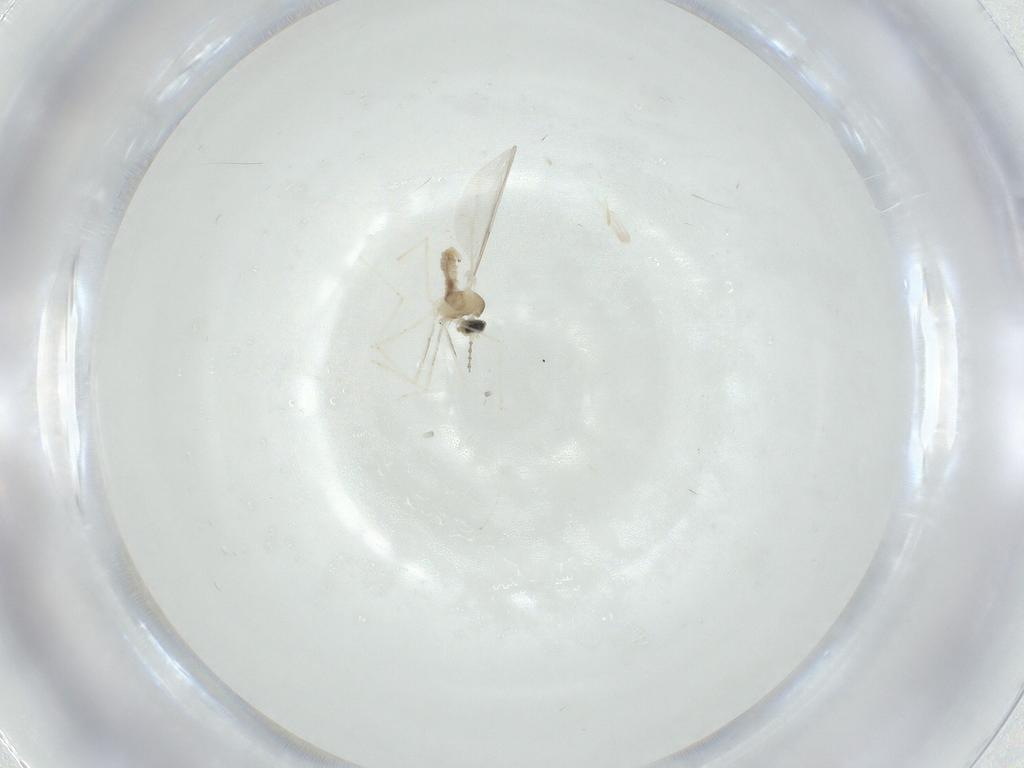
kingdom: Animalia
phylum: Arthropoda
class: Insecta
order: Diptera
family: Cecidomyiidae
